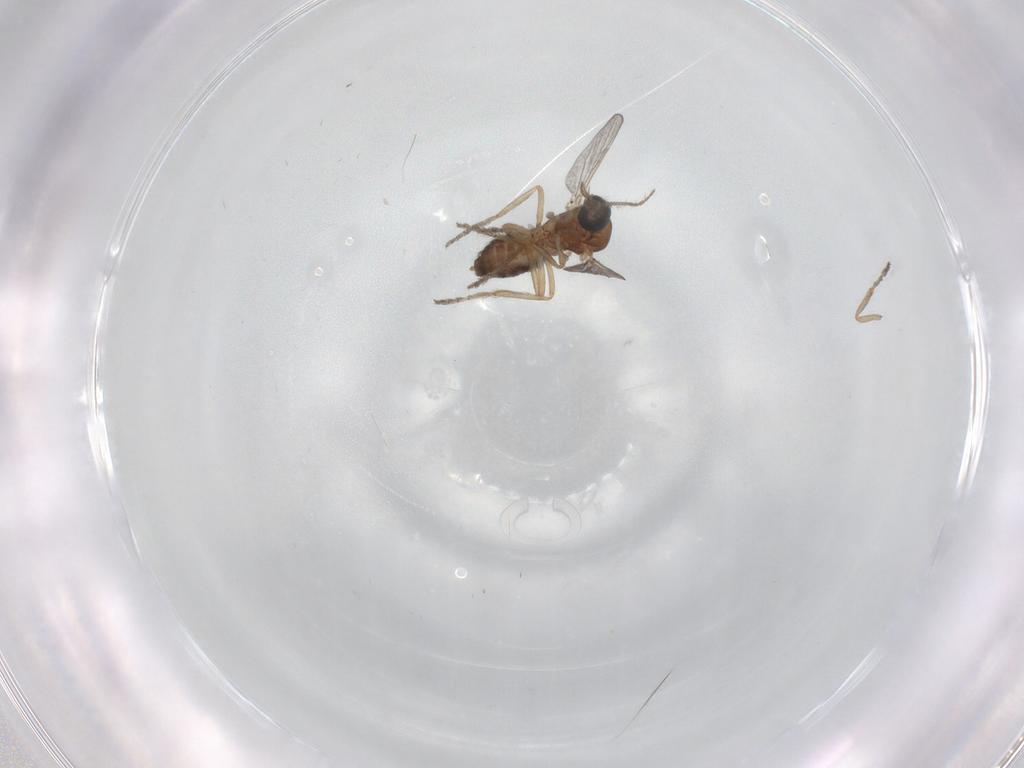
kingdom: Animalia
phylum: Arthropoda
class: Insecta
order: Diptera
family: Ceratopogonidae
